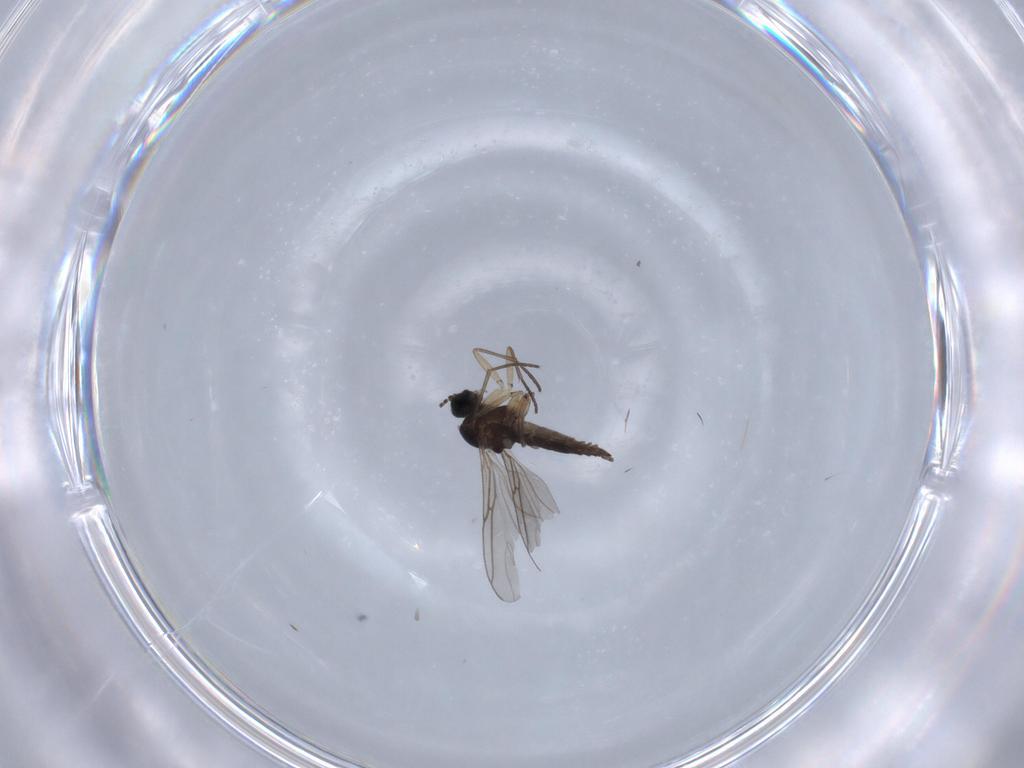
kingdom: Animalia
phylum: Arthropoda
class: Insecta
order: Diptera
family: Sciaridae
